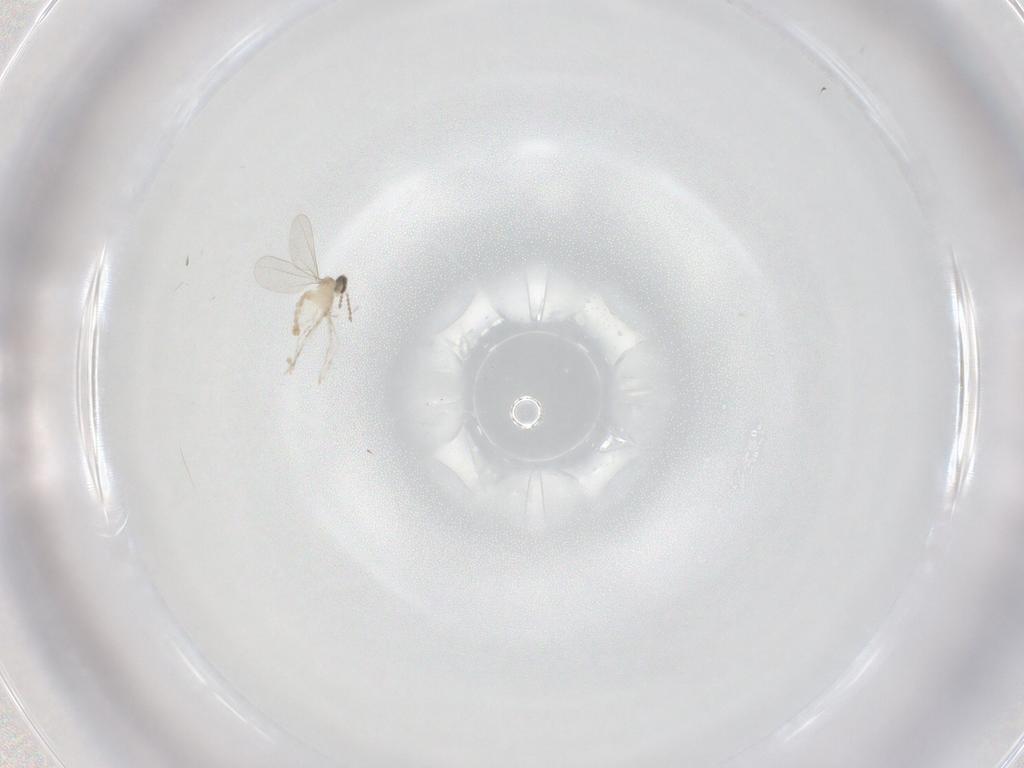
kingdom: Animalia
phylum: Arthropoda
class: Insecta
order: Diptera
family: Cecidomyiidae
